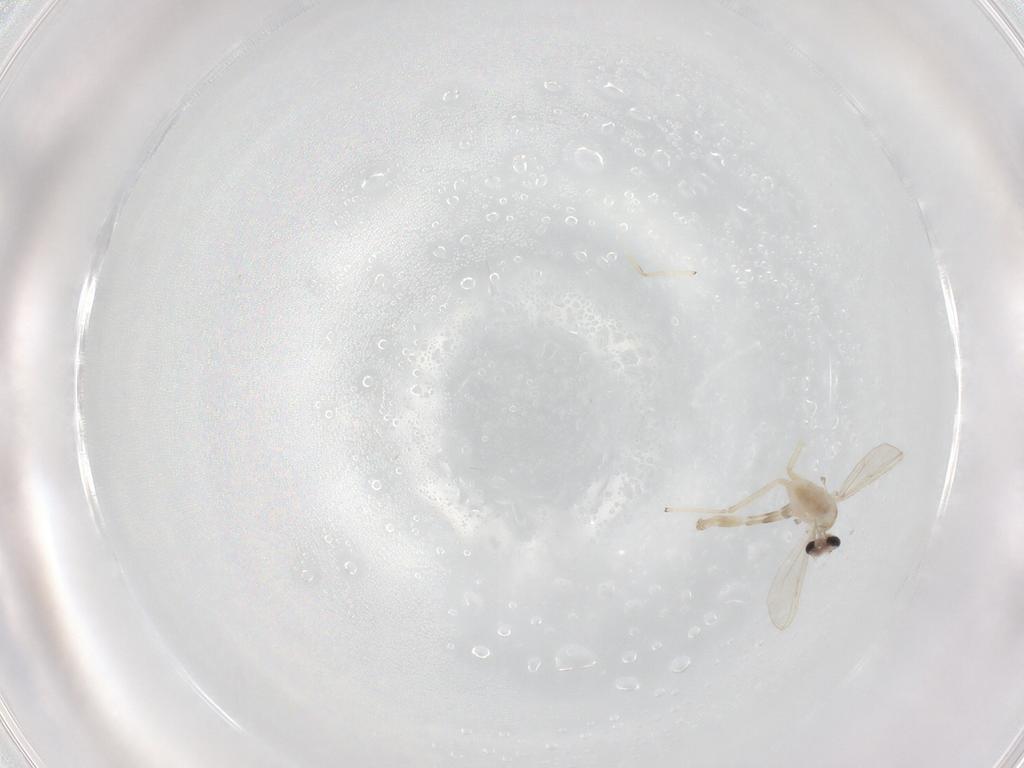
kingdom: Animalia
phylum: Arthropoda
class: Insecta
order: Diptera
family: Chironomidae
